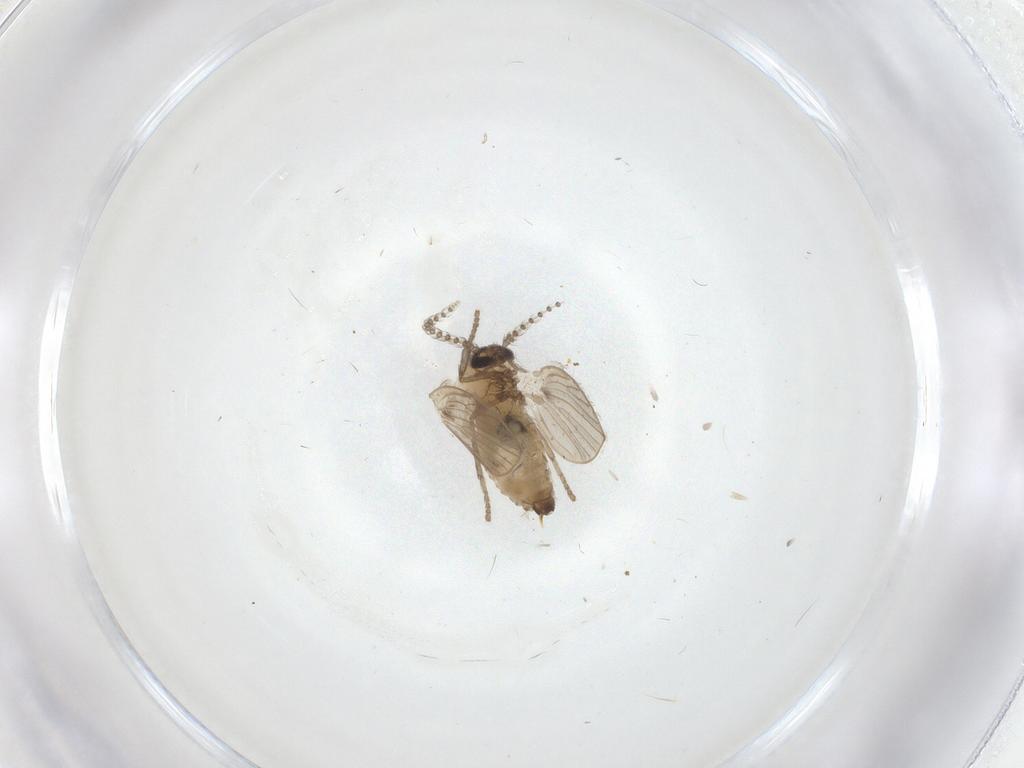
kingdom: Animalia
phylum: Arthropoda
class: Insecta
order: Diptera
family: Psychodidae
